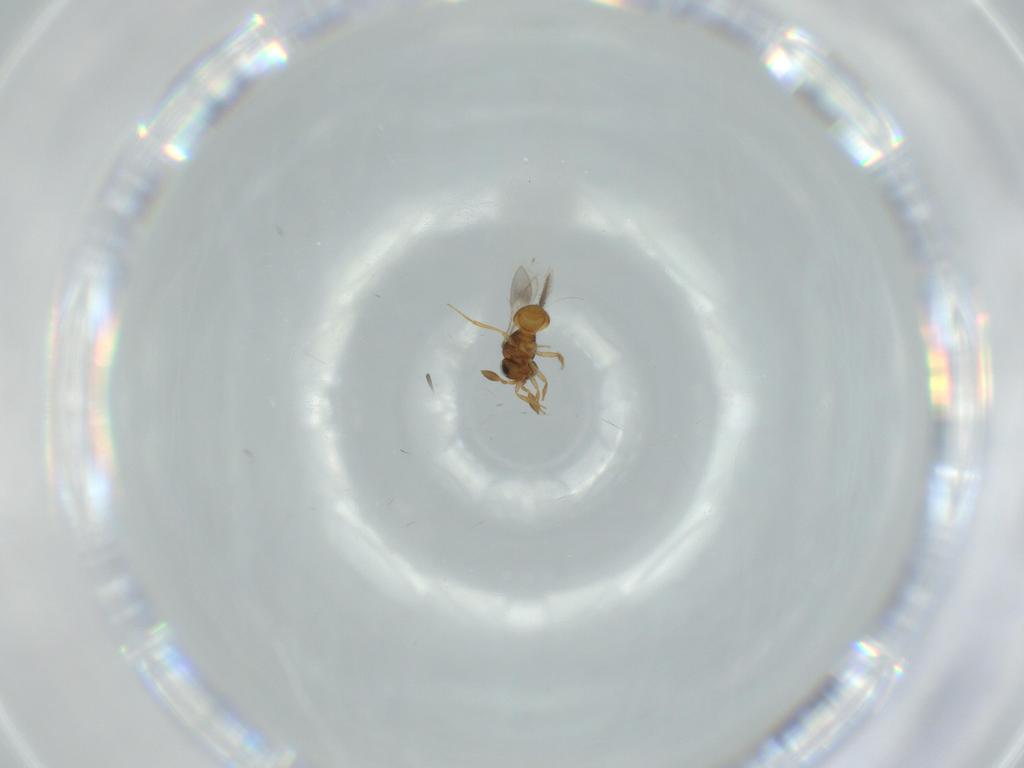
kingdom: Animalia
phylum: Arthropoda
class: Insecta
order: Hymenoptera
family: Scelionidae
